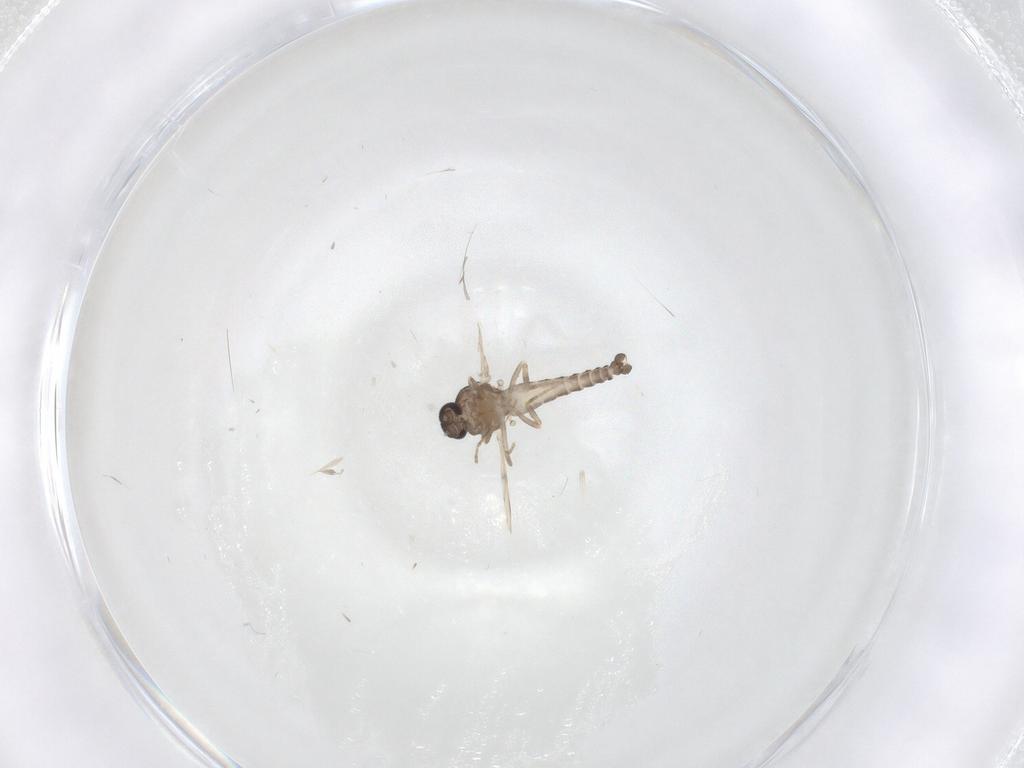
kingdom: Animalia
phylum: Arthropoda
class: Insecta
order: Diptera
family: Ceratopogonidae
